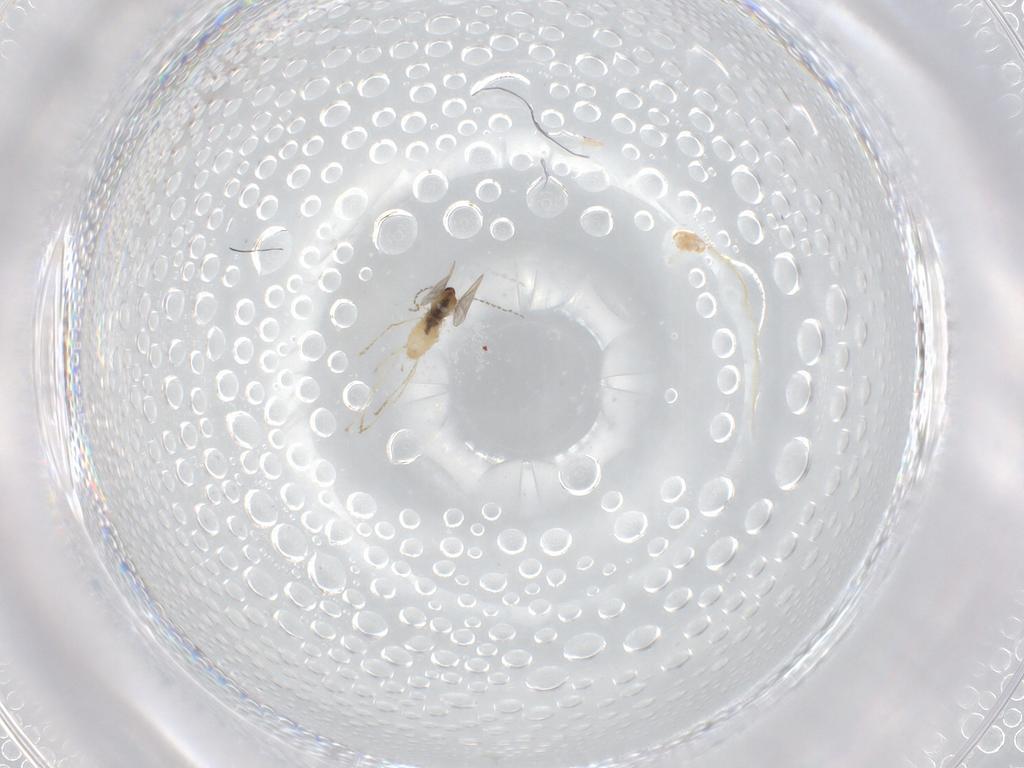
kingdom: Animalia
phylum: Arthropoda
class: Insecta
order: Diptera
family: Cecidomyiidae
